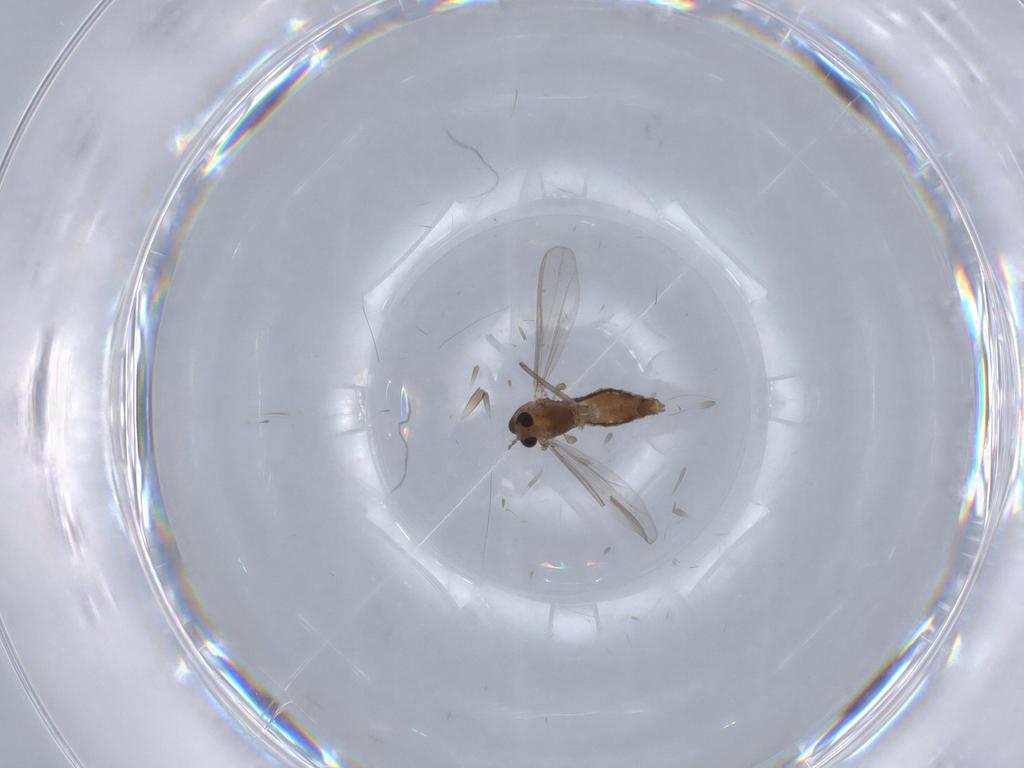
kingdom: Animalia
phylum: Arthropoda
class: Insecta
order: Diptera
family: Chironomidae
